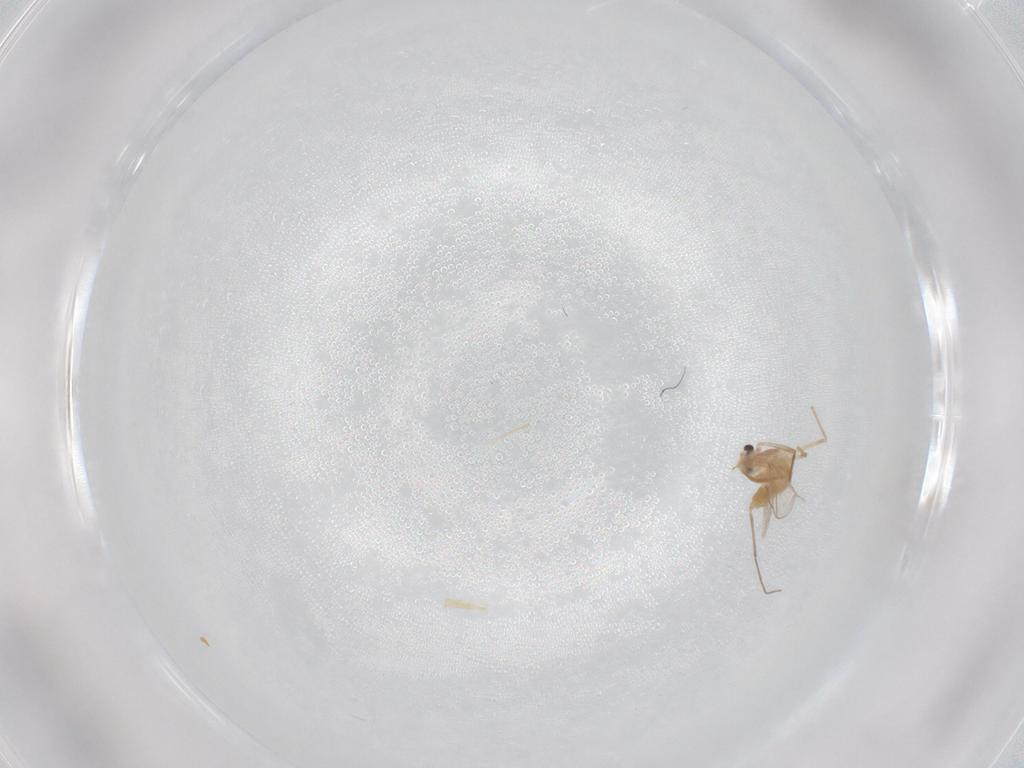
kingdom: Animalia
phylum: Arthropoda
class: Insecta
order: Diptera
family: Chironomidae
